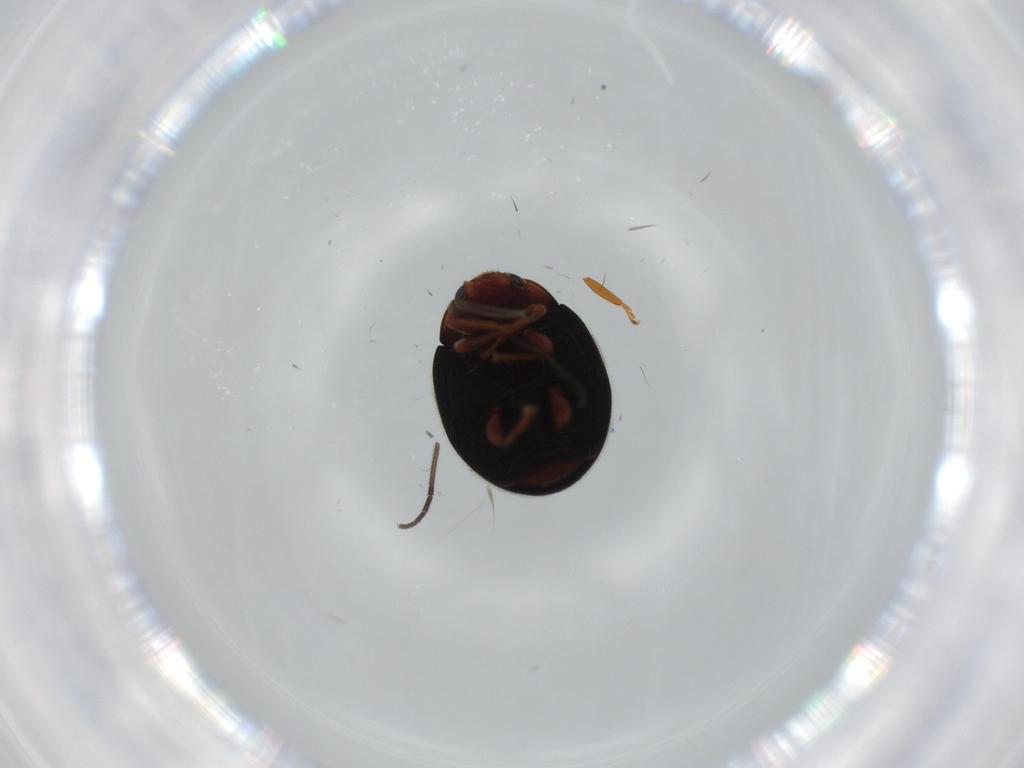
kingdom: Animalia
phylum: Arthropoda
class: Insecta
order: Coleoptera
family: Coccinellidae
